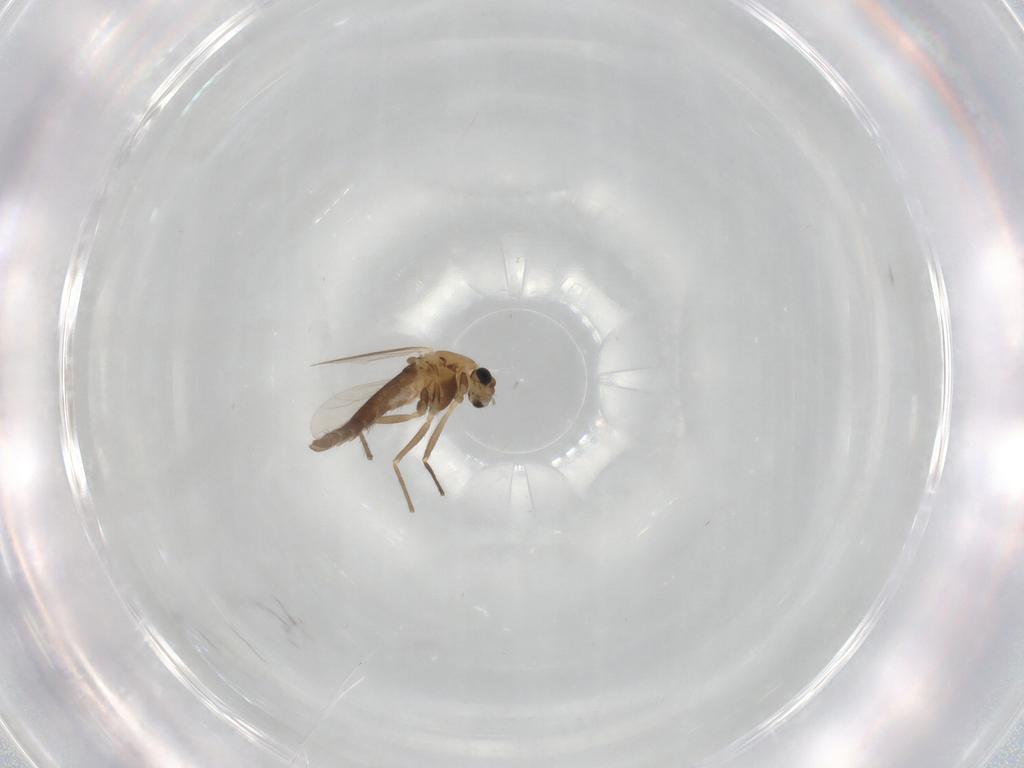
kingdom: Animalia
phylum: Arthropoda
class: Insecta
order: Diptera
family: Chironomidae
